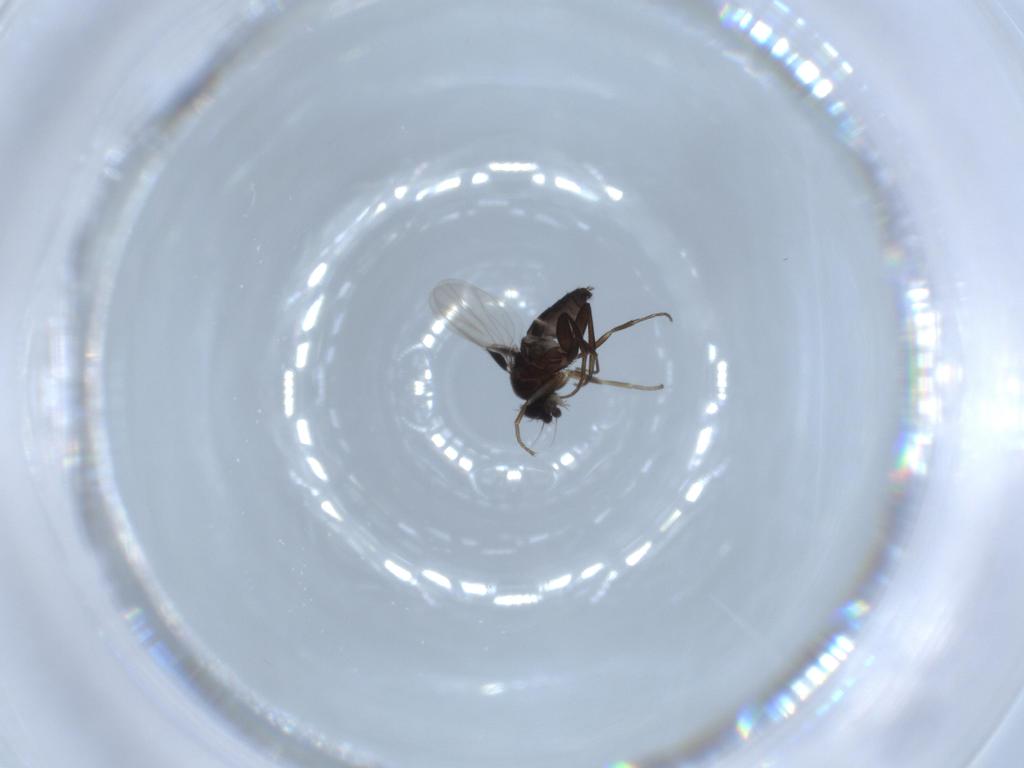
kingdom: Animalia
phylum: Arthropoda
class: Insecta
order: Diptera
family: Phoridae
